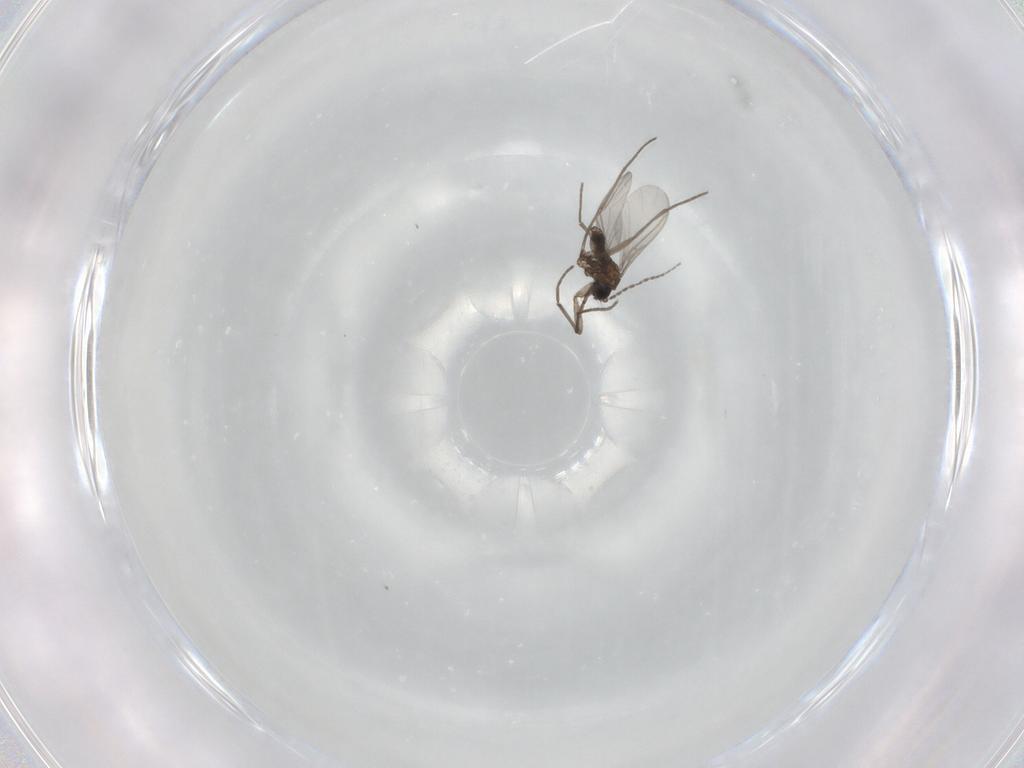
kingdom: Animalia
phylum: Arthropoda
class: Insecta
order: Diptera
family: Sciaridae
